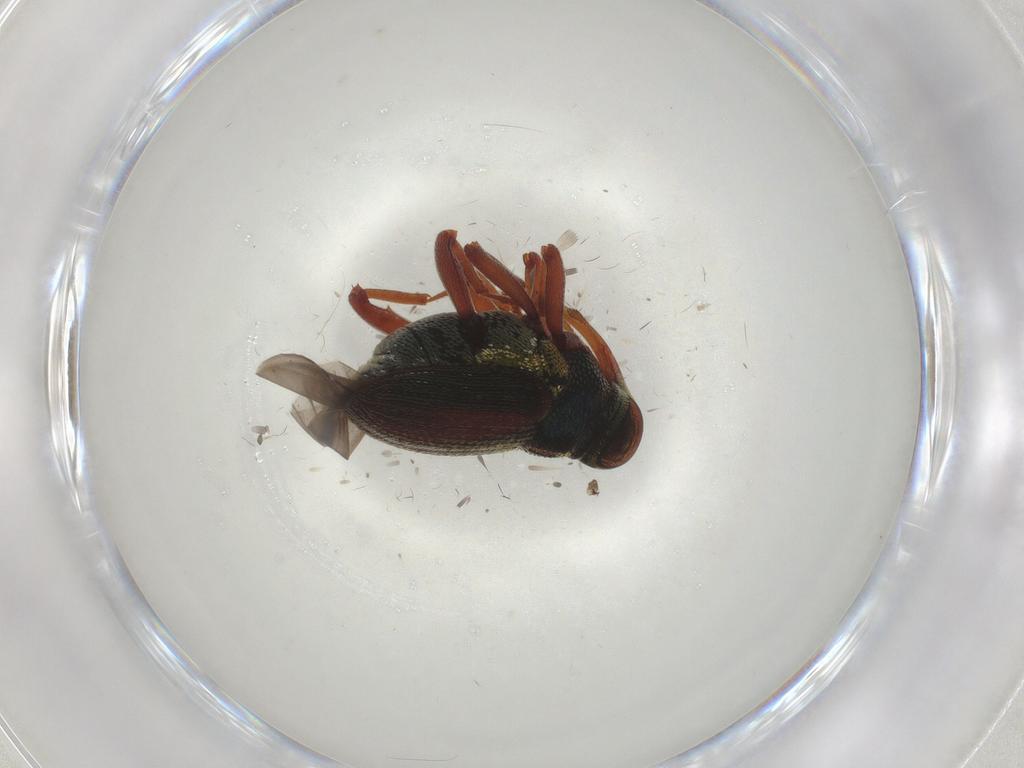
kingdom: Animalia
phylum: Arthropoda
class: Insecta
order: Coleoptera
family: Curculionidae
